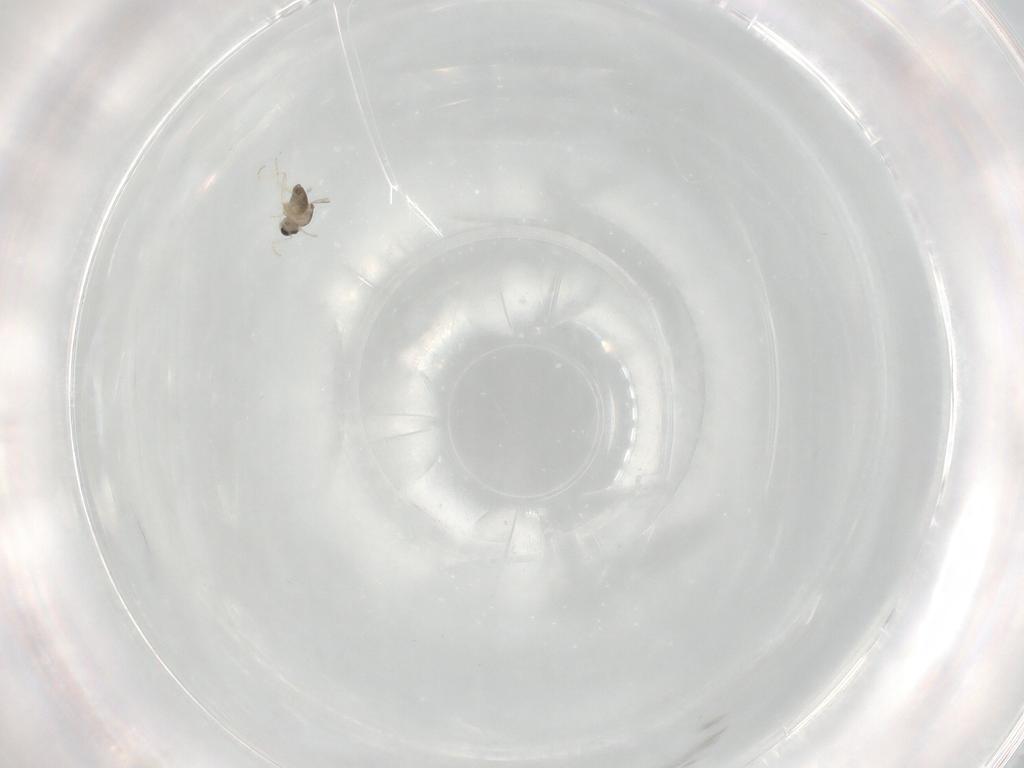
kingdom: Animalia
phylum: Arthropoda
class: Insecta
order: Diptera
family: Cecidomyiidae
